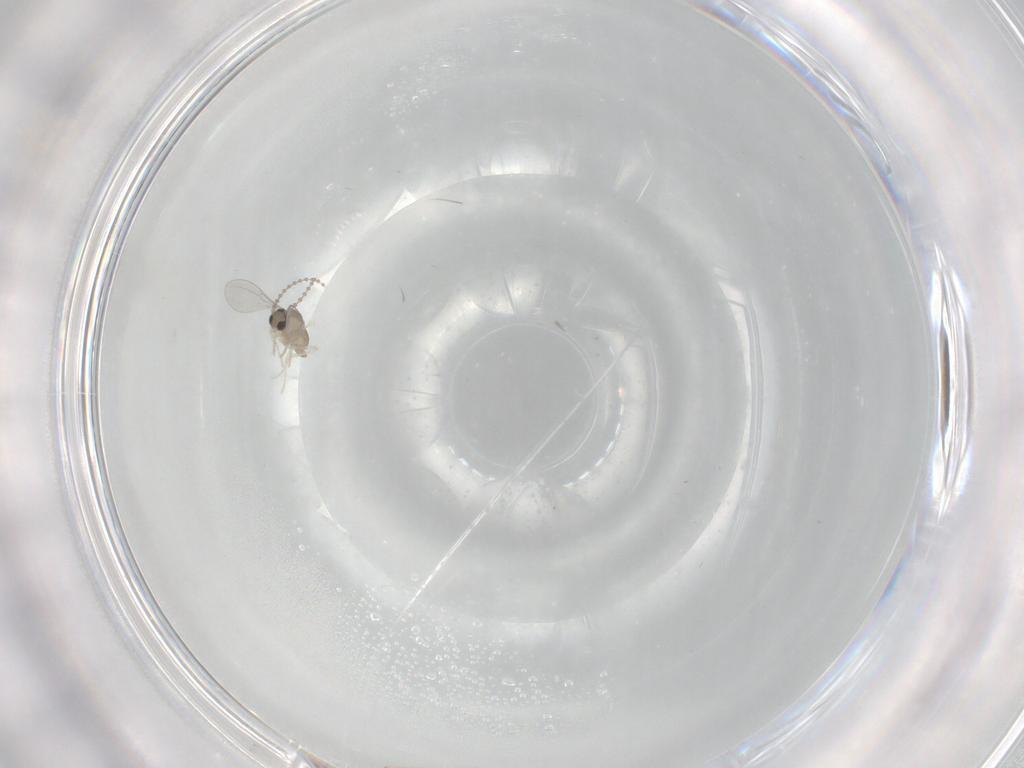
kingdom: Animalia
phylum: Arthropoda
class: Insecta
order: Diptera
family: Cecidomyiidae
